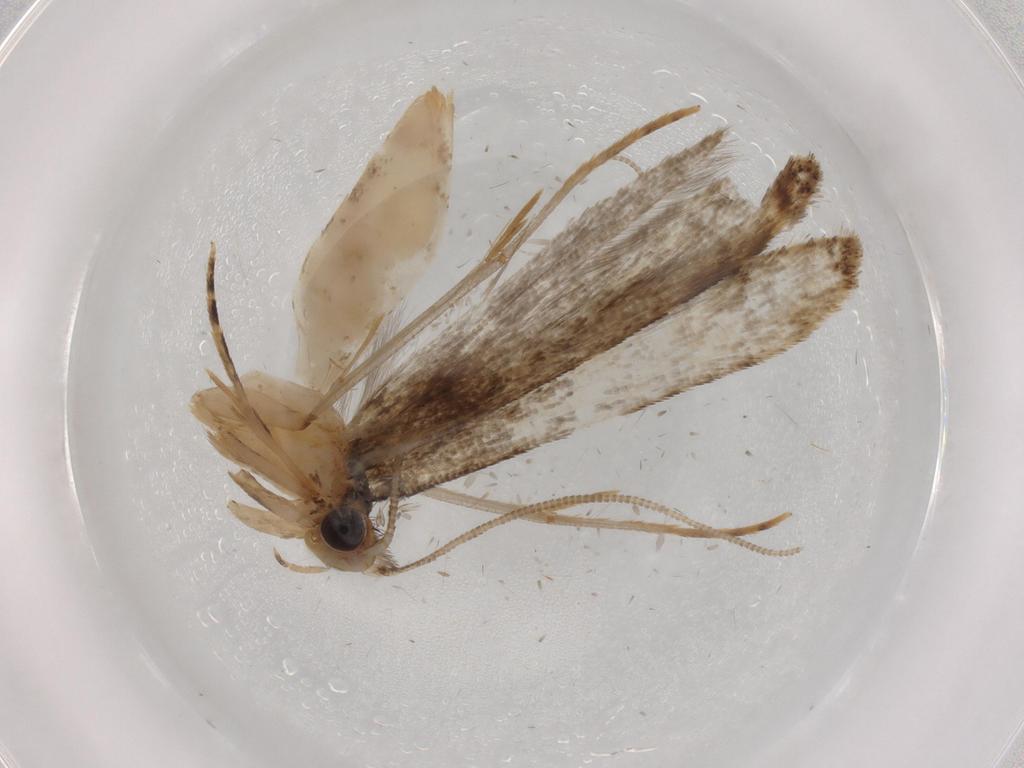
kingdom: Animalia
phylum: Arthropoda
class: Insecta
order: Lepidoptera
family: Tineidae
